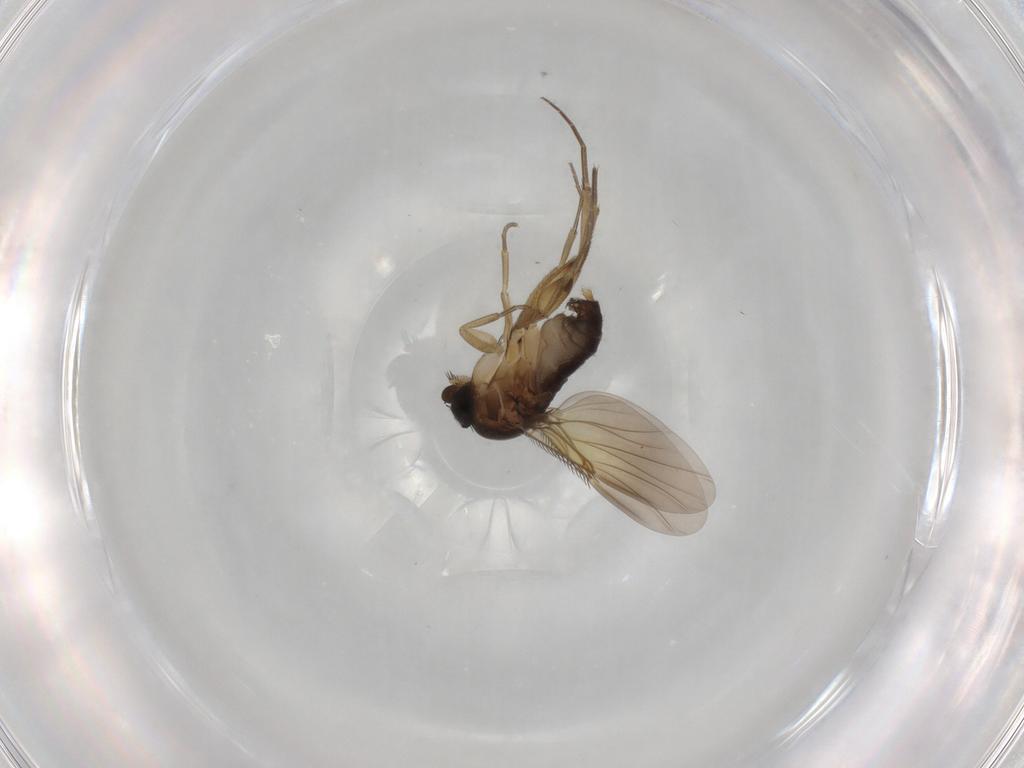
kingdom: Animalia
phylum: Arthropoda
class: Insecta
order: Diptera
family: Phoridae
